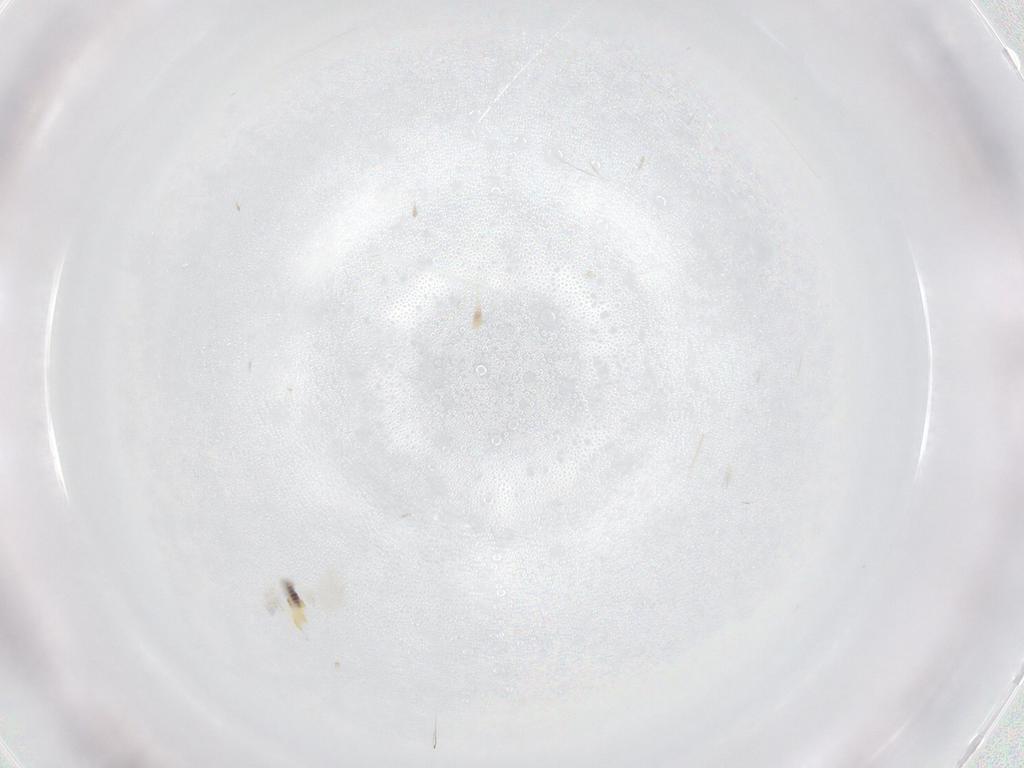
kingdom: Animalia
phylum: Arthropoda
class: Insecta
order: Hymenoptera
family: Mymaridae
